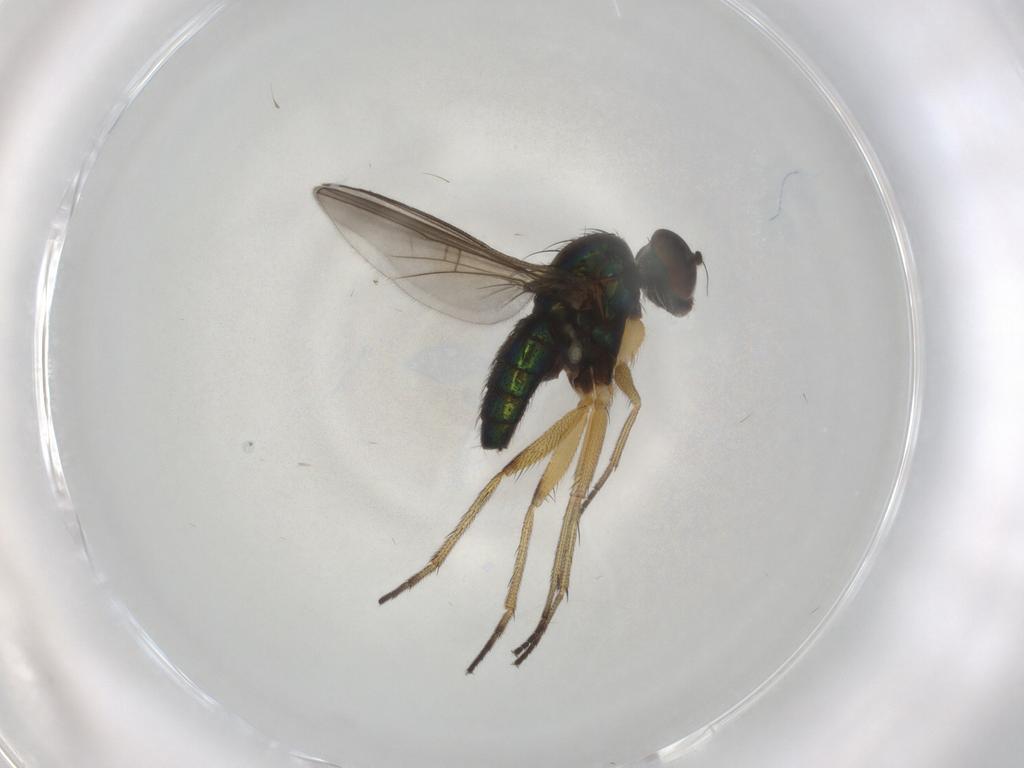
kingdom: Animalia
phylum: Arthropoda
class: Insecta
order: Diptera
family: Dolichopodidae
